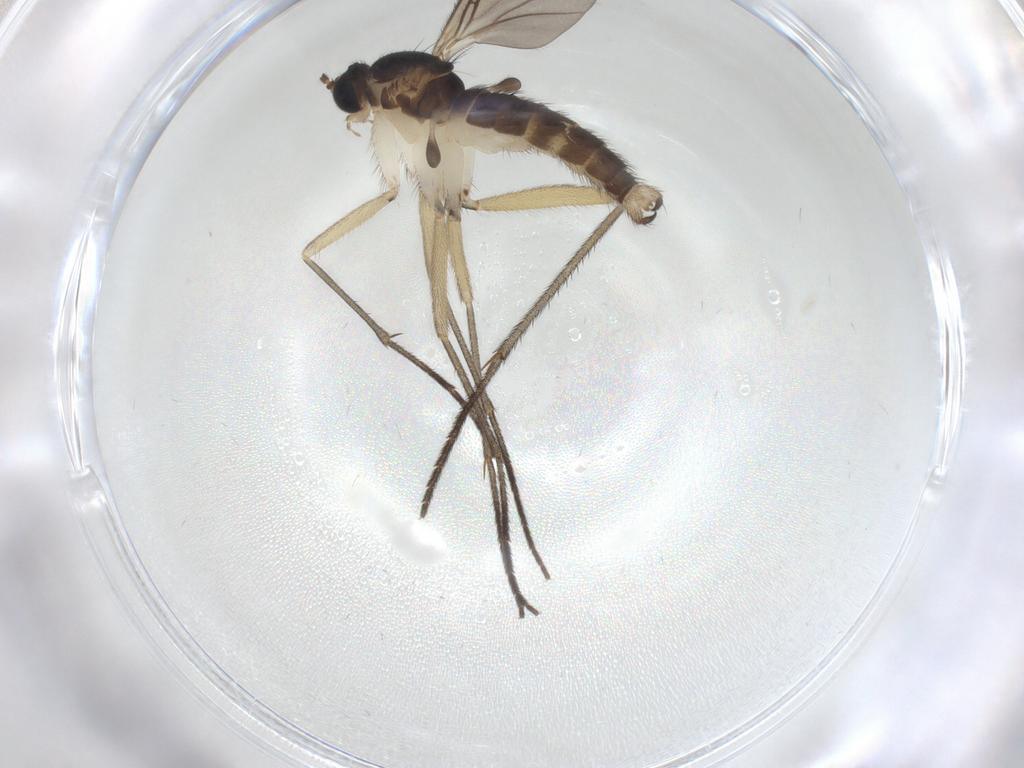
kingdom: Animalia
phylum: Arthropoda
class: Insecta
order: Diptera
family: Sciaridae
